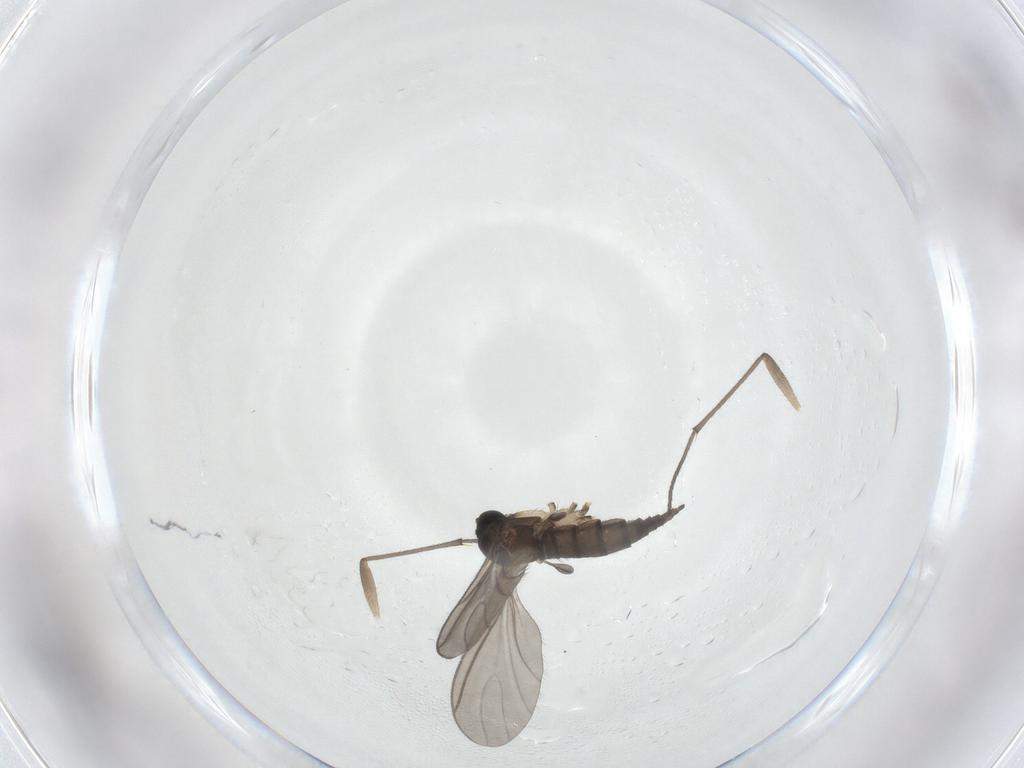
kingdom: Animalia
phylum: Arthropoda
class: Insecta
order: Diptera
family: Sciaridae
